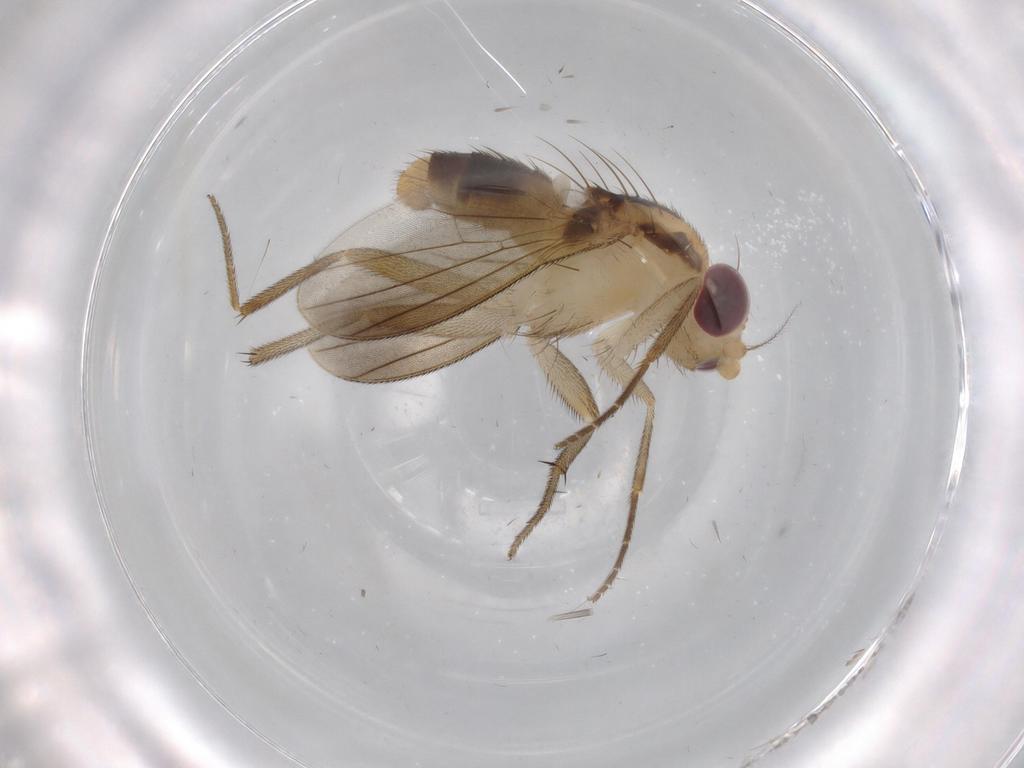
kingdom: Animalia
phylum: Arthropoda
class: Insecta
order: Diptera
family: Clusiidae
